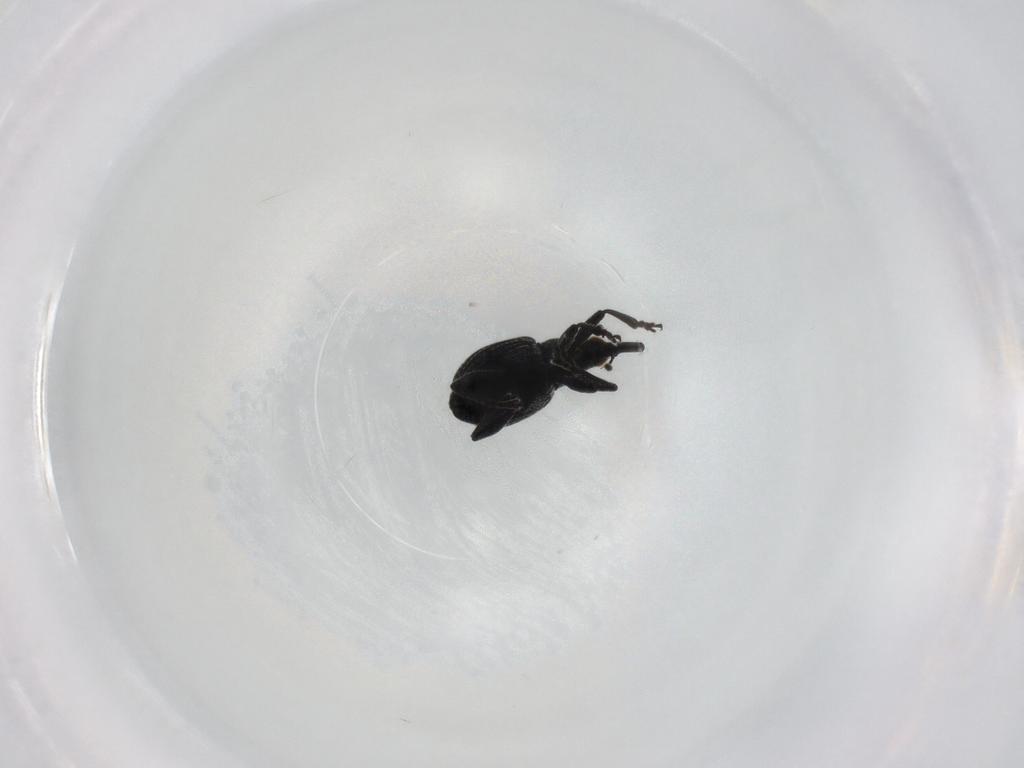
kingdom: Animalia
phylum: Arthropoda
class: Insecta
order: Coleoptera
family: Brentidae
